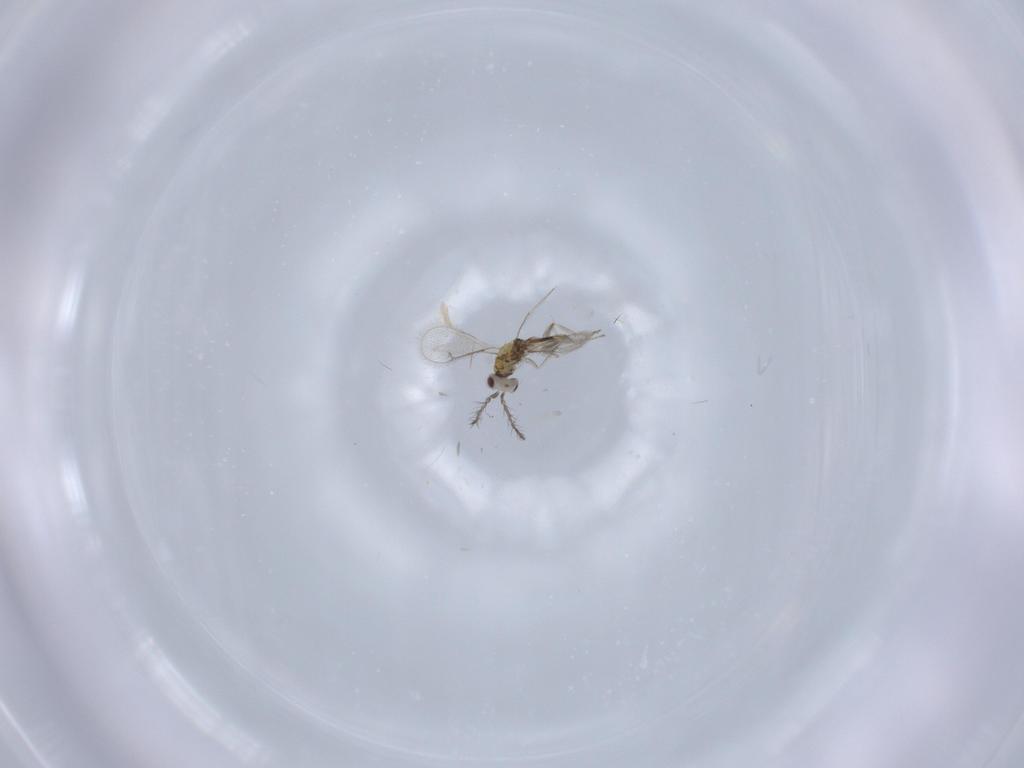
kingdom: Animalia
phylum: Arthropoda
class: Insecta
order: Hymenoptera
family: Eulophidae
